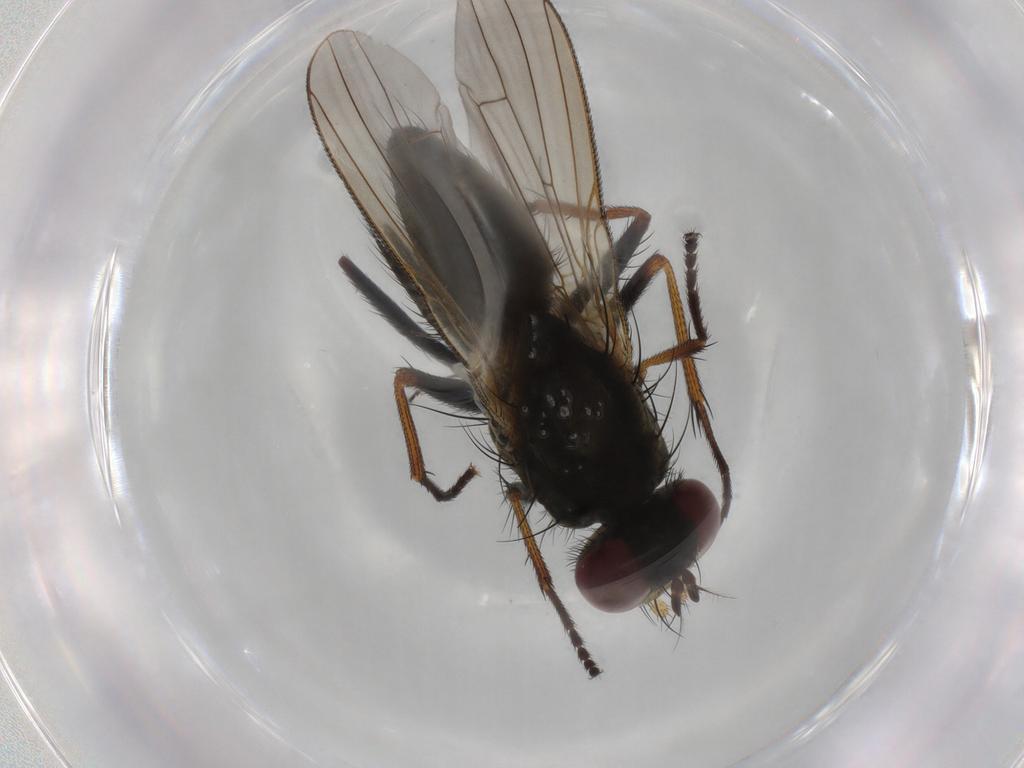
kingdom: Animalia
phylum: Arthropoda
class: Insecta
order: Diptera
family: Muscidae
